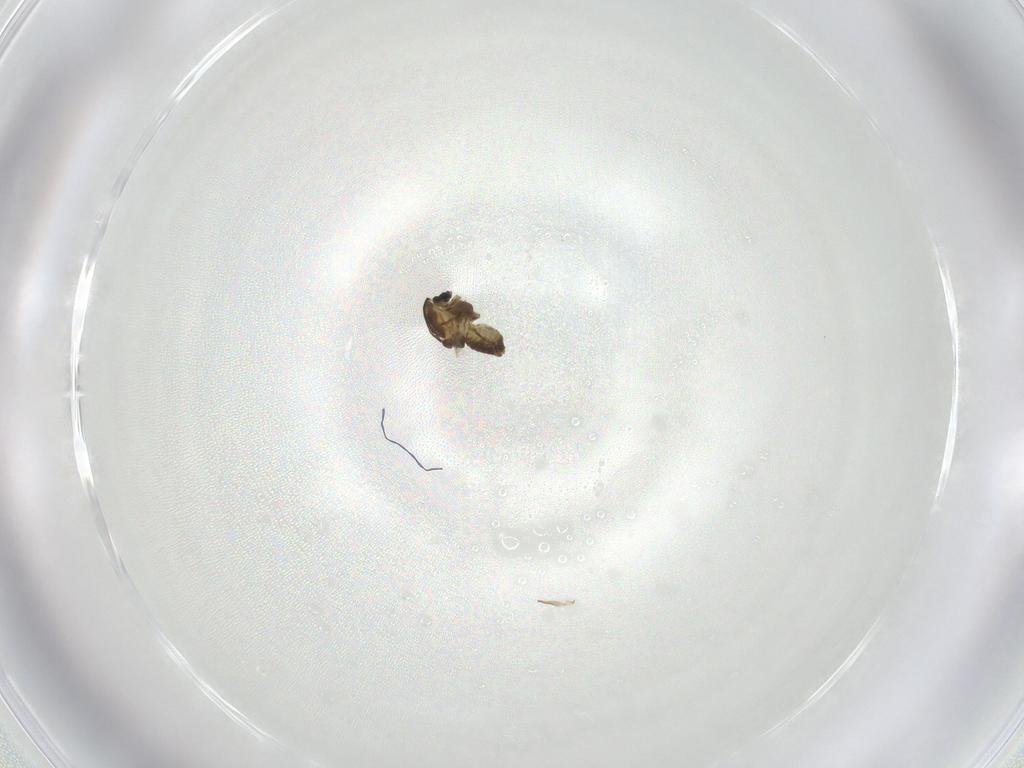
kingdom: Animalia
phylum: Arthropoda
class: Insecta
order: Diptera
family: Chironomidae
